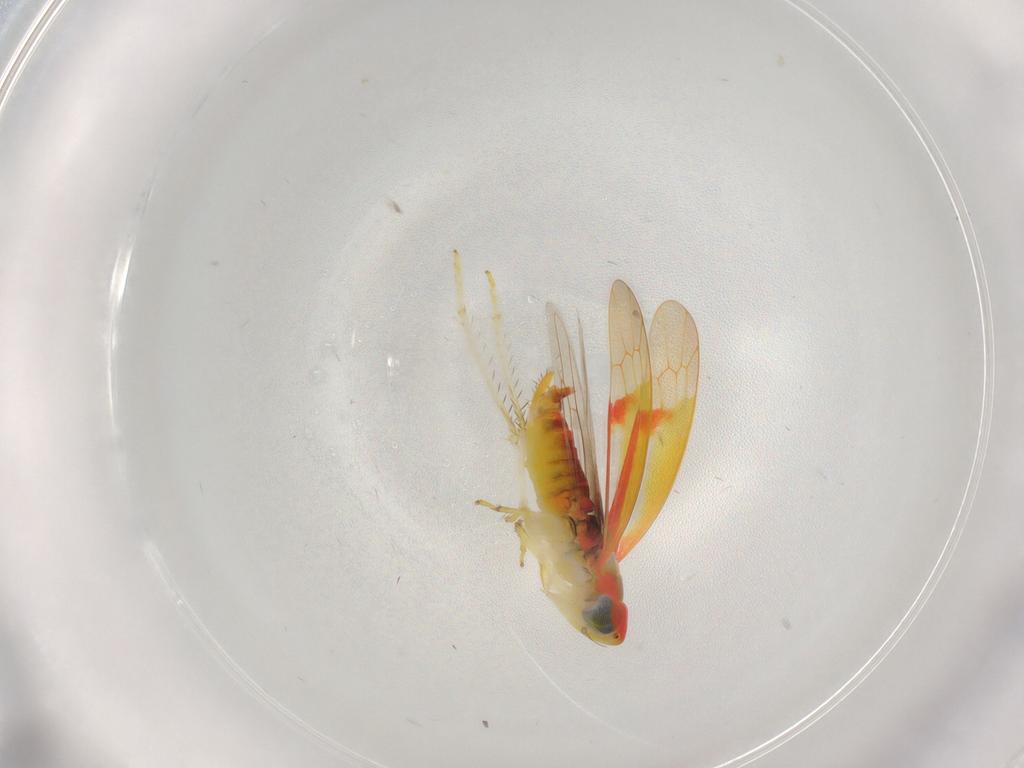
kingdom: Animalia
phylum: Arthropoda
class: Insecta
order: Hemiptera
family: Cicadellidae
